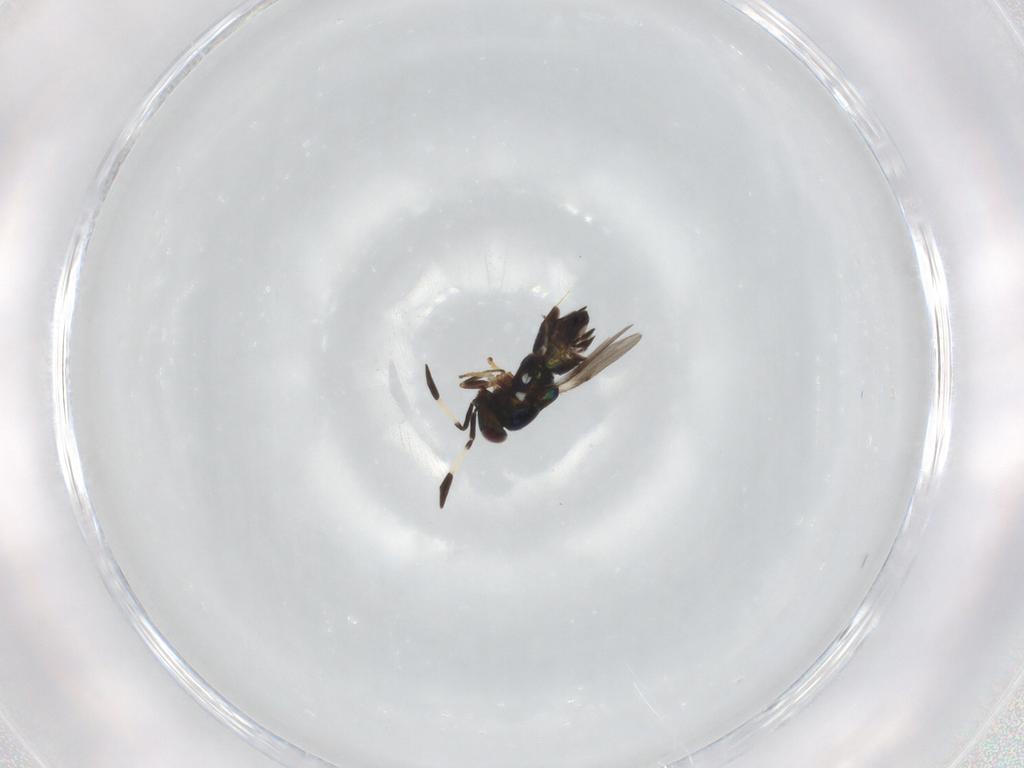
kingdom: Animalia
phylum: Arthropoda
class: Insecta
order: Hymenoptera
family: Encyrtidae
